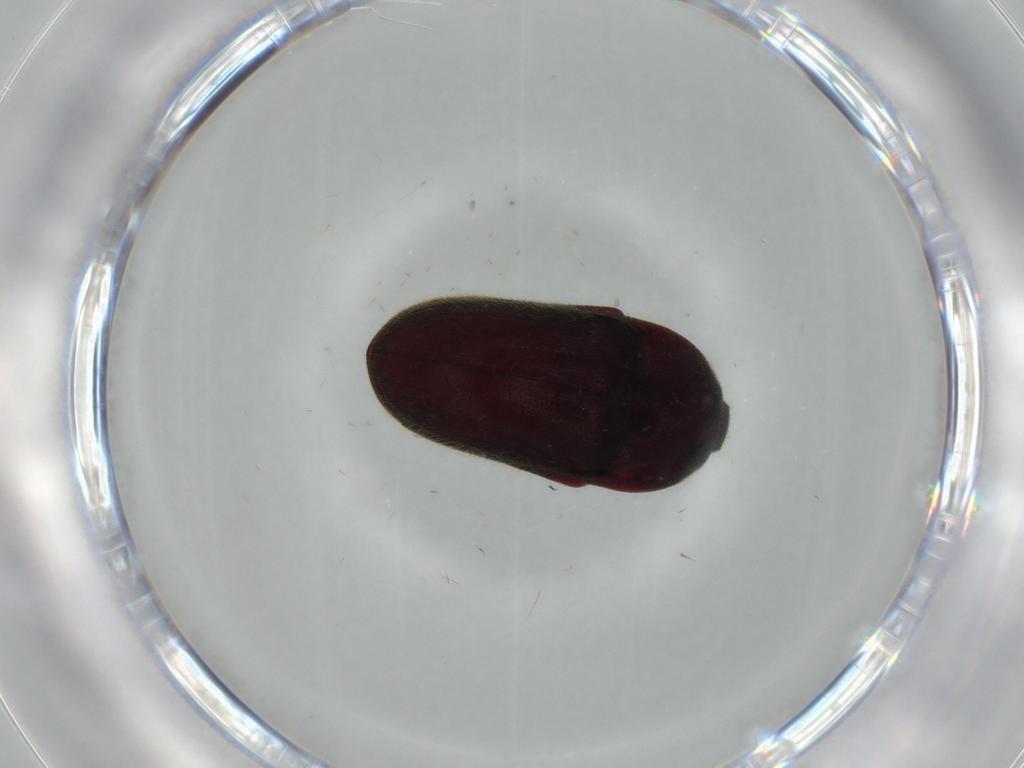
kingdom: Animalia
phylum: Arthropoda
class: Insecta
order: Coleoptera
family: Throscidae
